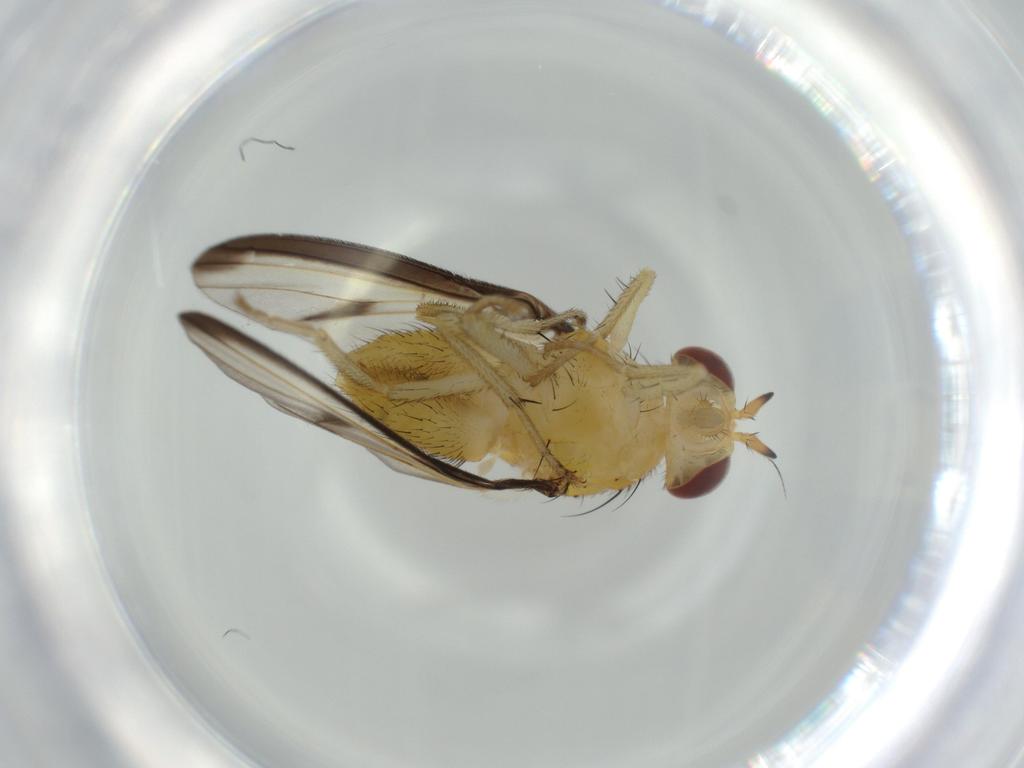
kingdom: Animalia
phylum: Arthropoda
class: Insecta
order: Diptera
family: Lauxaniidae
